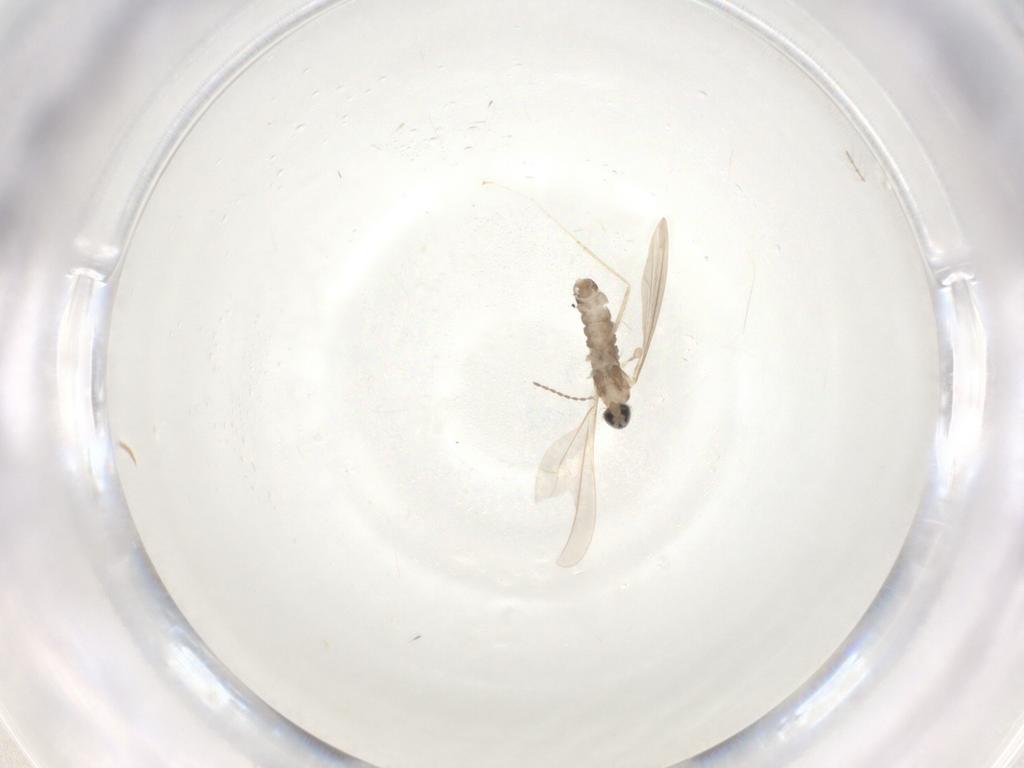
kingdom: Animalia
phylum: Arthropoda
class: Insecta
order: Diptera
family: Cecidomyiidae
